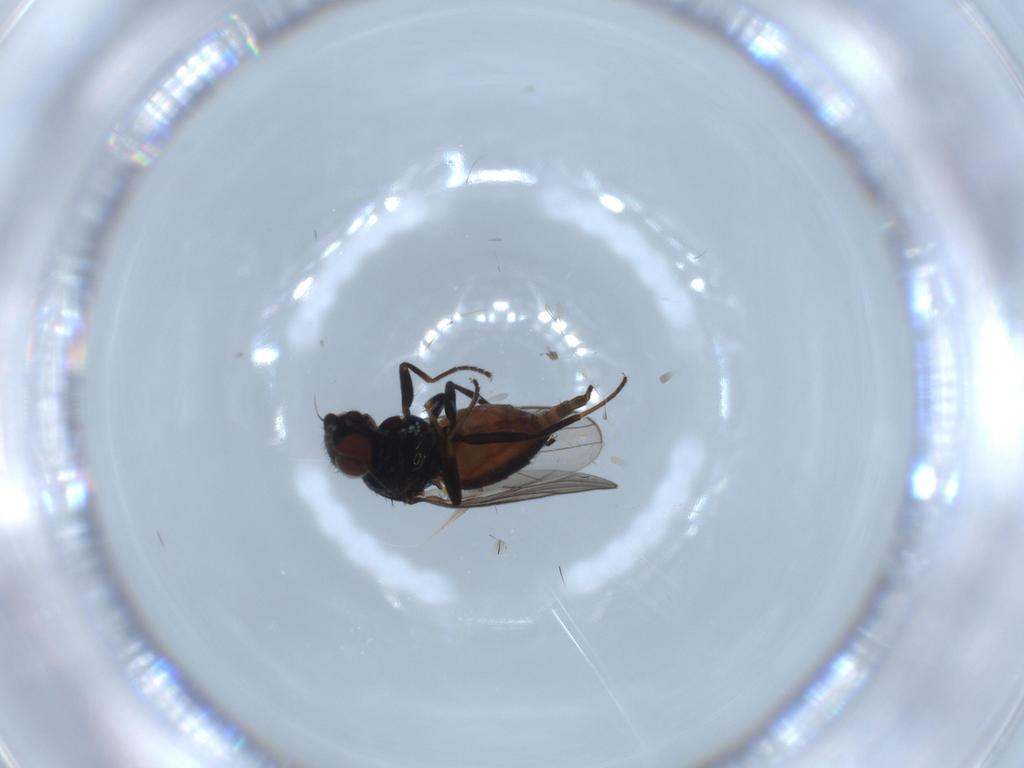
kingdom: Animalia
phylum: Arthropoda
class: Insecta
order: Diptera
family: Chloropidae
